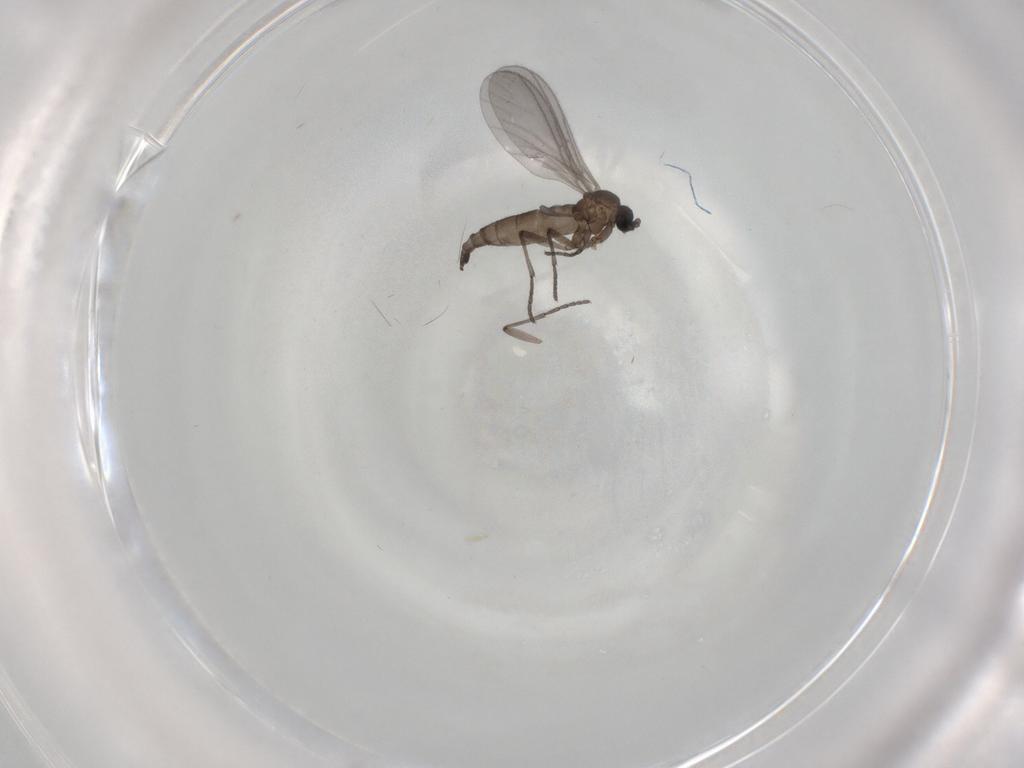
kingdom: Animalia
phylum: Arthropoda
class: Insecta
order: Diptera
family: Sciaridae
